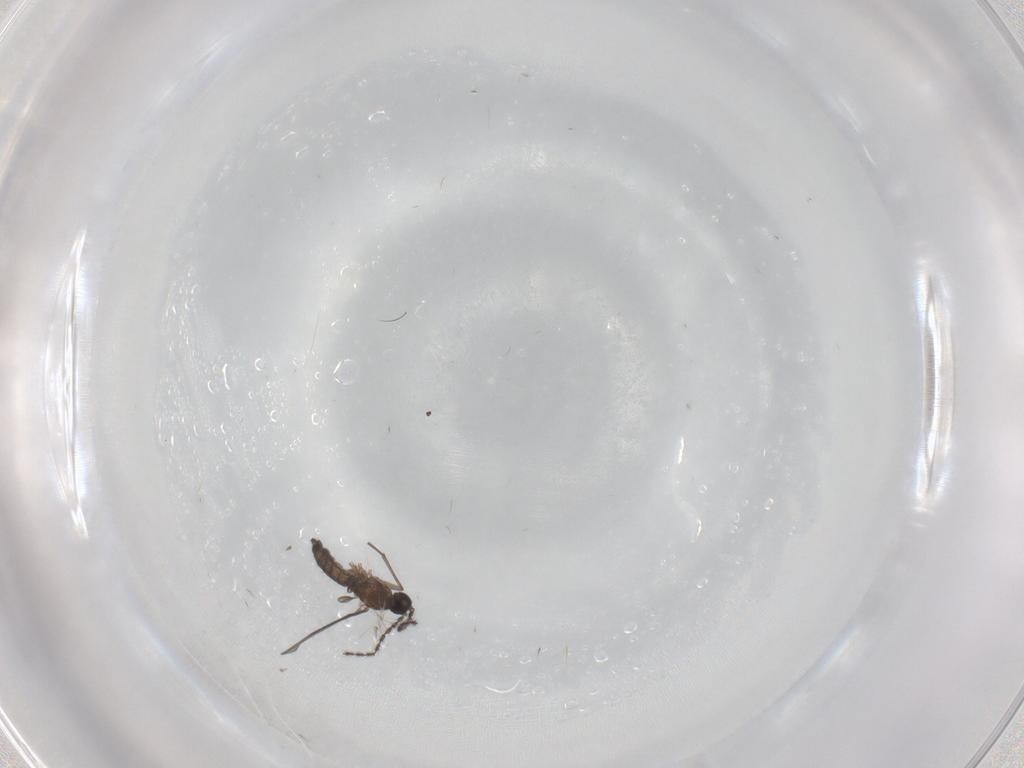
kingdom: Animalia
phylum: Arthropoda
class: Insecta
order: Diptera
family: Sciaridae
